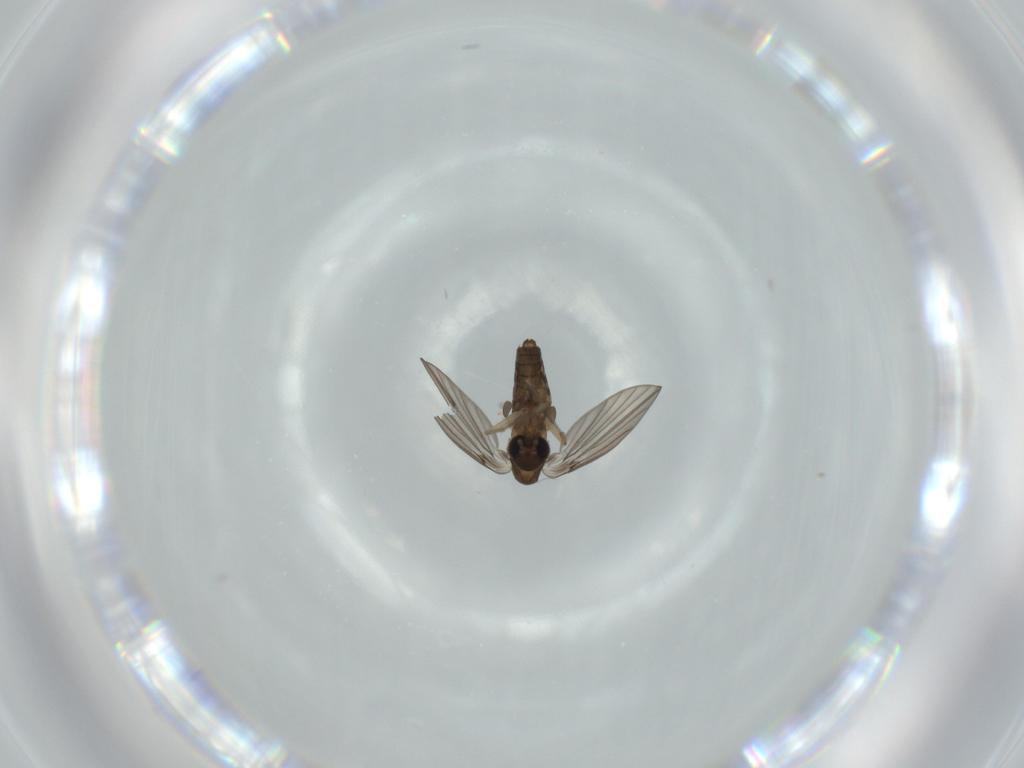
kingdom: Animalia
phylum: Arthropoda
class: Insecta
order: Diptera
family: Psychodidae
